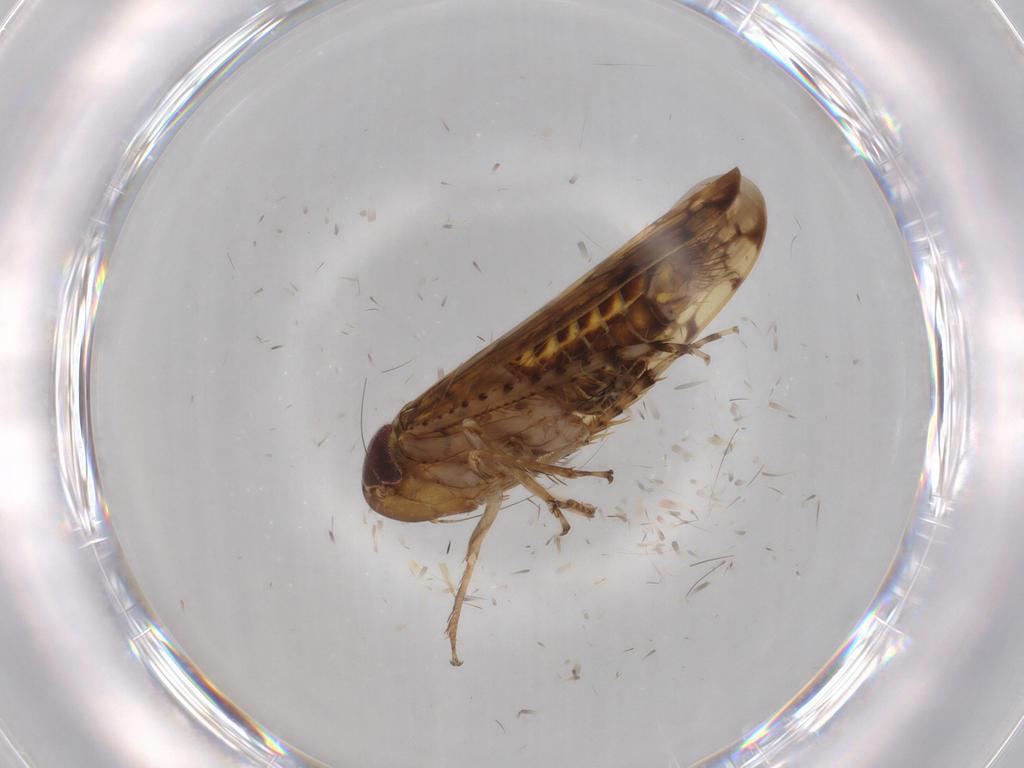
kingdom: Animalia
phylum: Arthropoda
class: Insecta
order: Hemiptera
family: Cicadellidae
